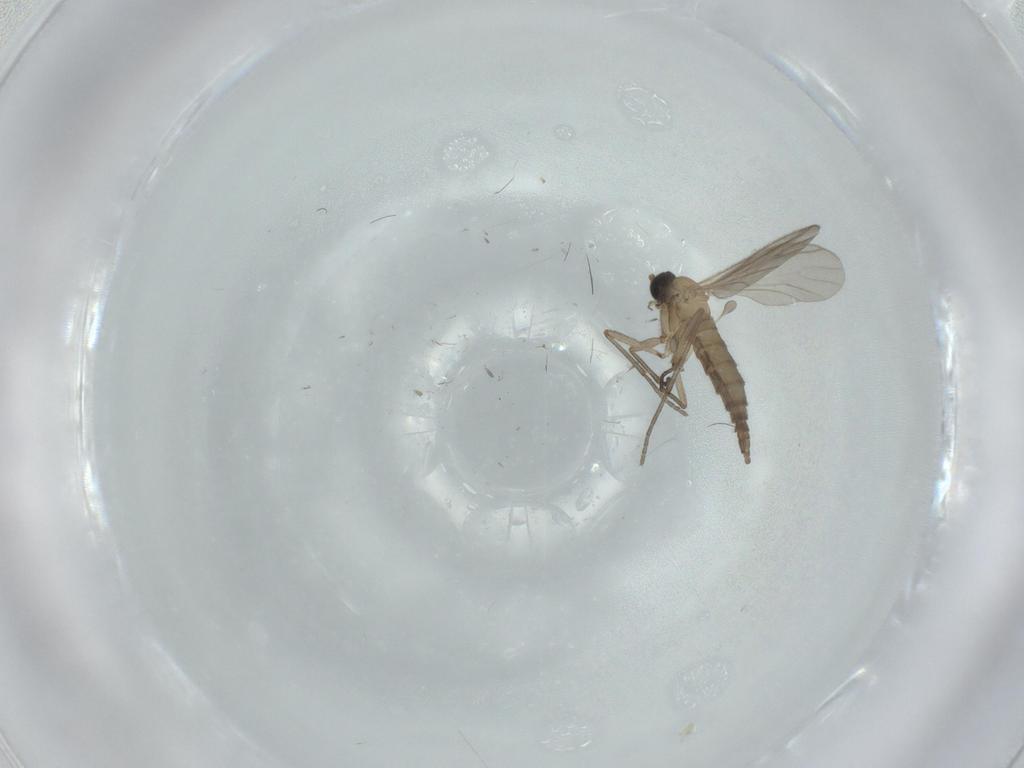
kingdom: Animalia
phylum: Arthropoda
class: Insecta
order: Diptera
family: Sciaridae
